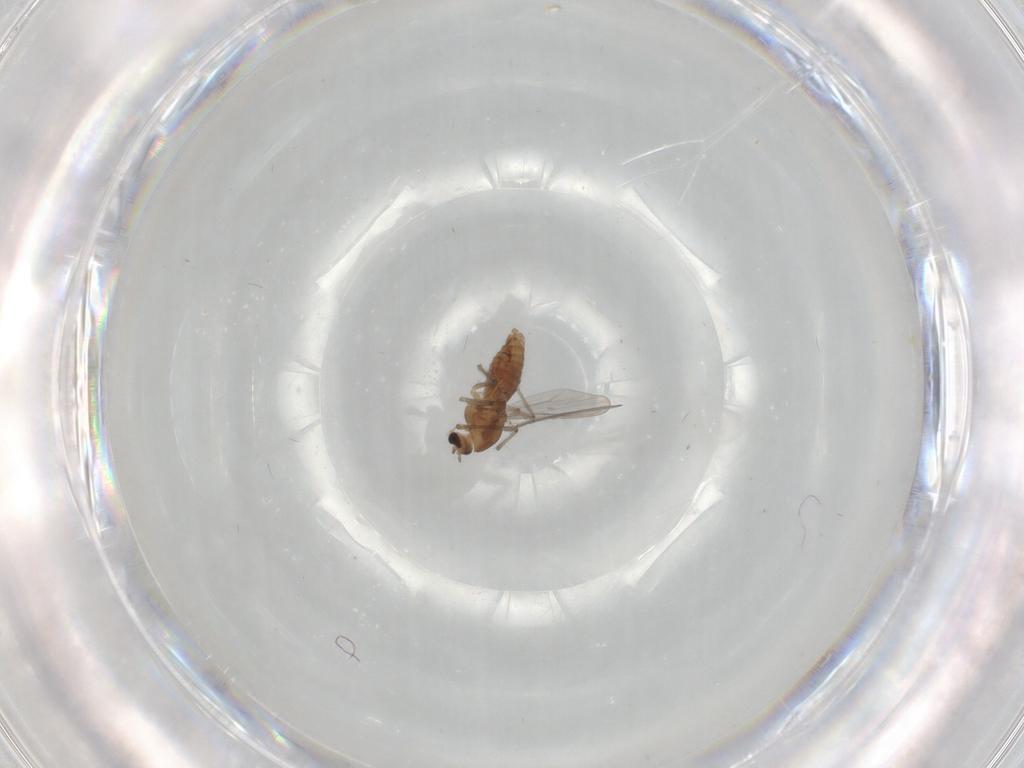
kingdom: Animalia
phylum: Arthropoda
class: Insecta
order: Diptera
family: Chironomidae
